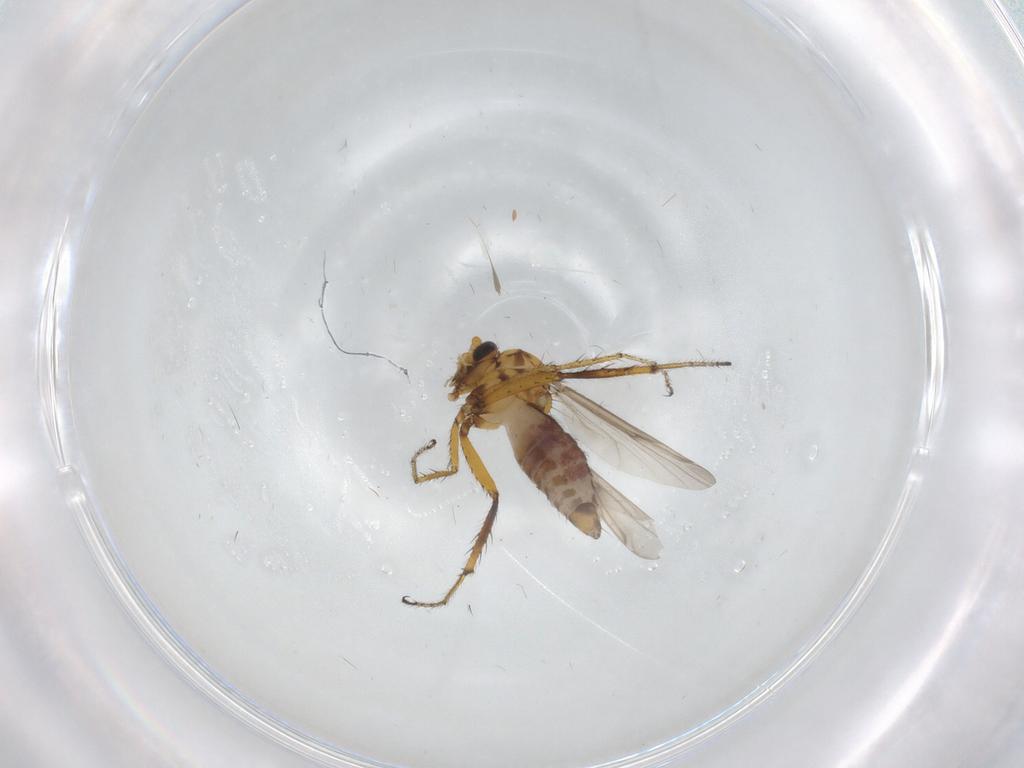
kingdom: Animalia
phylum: Arthropoda
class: Insecta
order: Diptera
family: Ceratopogonidae
